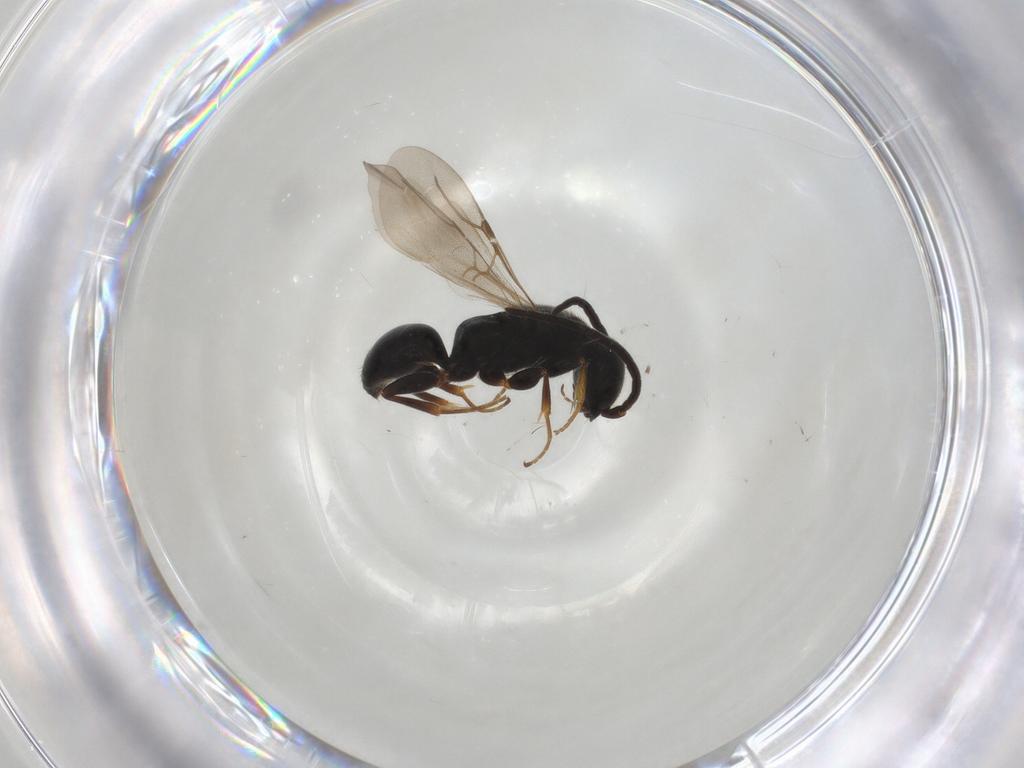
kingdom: Animalia
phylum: Arthropoda
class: Insecta
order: Hymenoptera
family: Bethylidae
